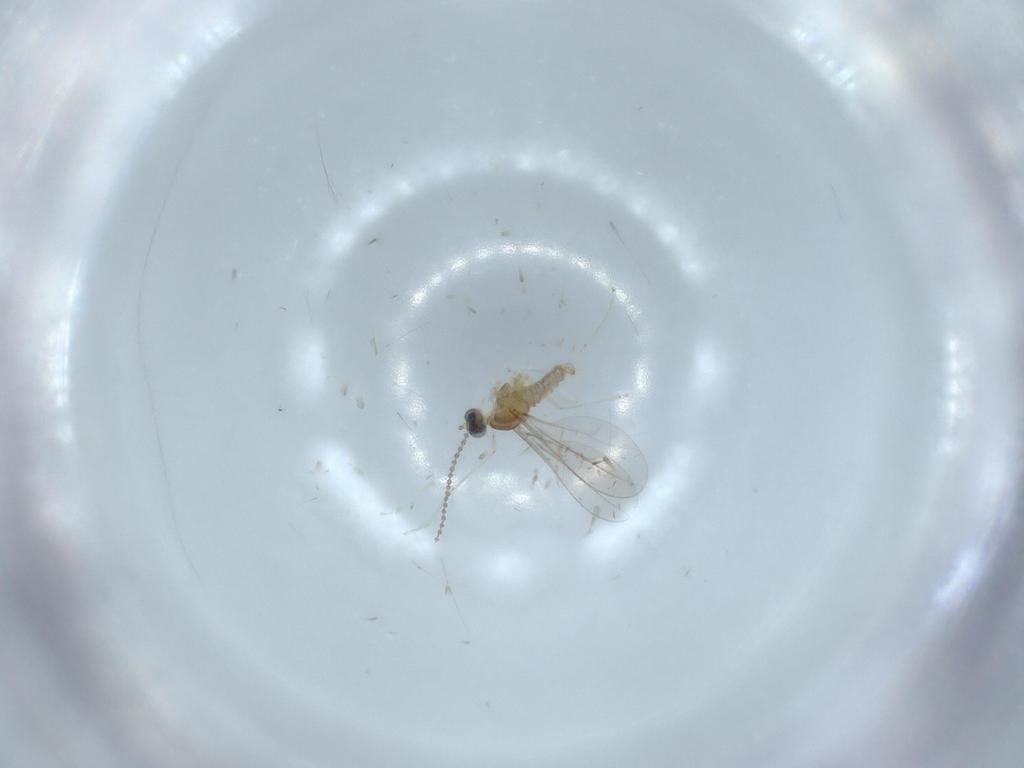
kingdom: Animalia
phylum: Arthropoda
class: Insecta
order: Diptera
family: Cecidomyiidae
